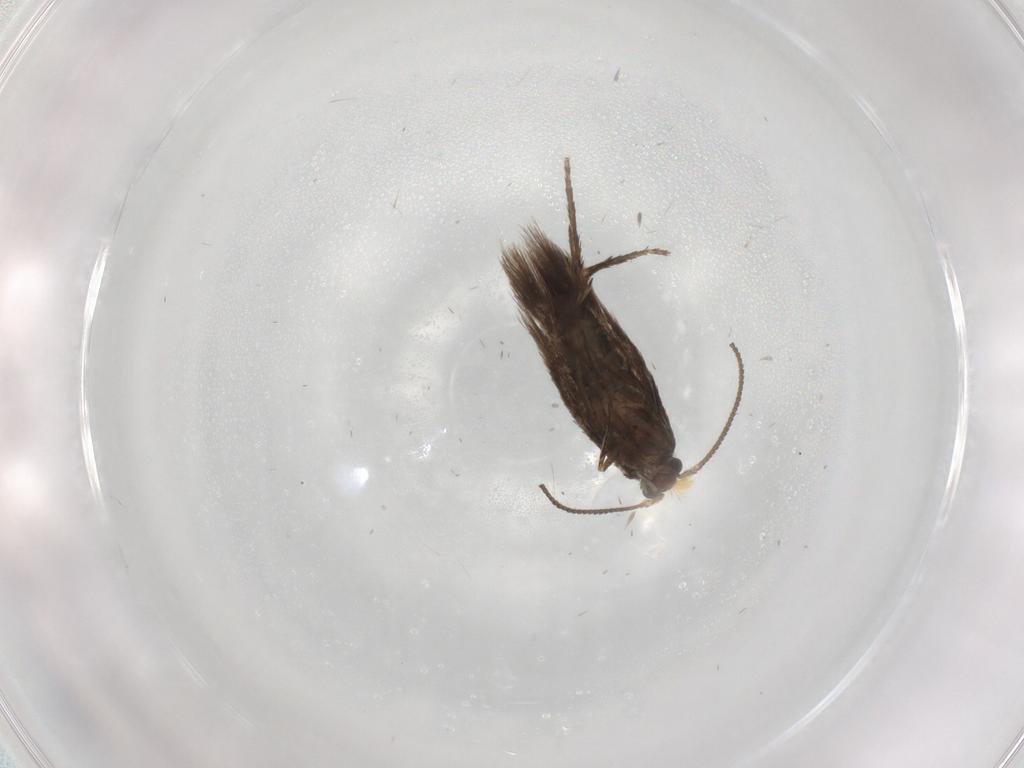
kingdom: Animalia
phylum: Arthropoda
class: Insecta
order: Lepidoptera
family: Nepticulidae
